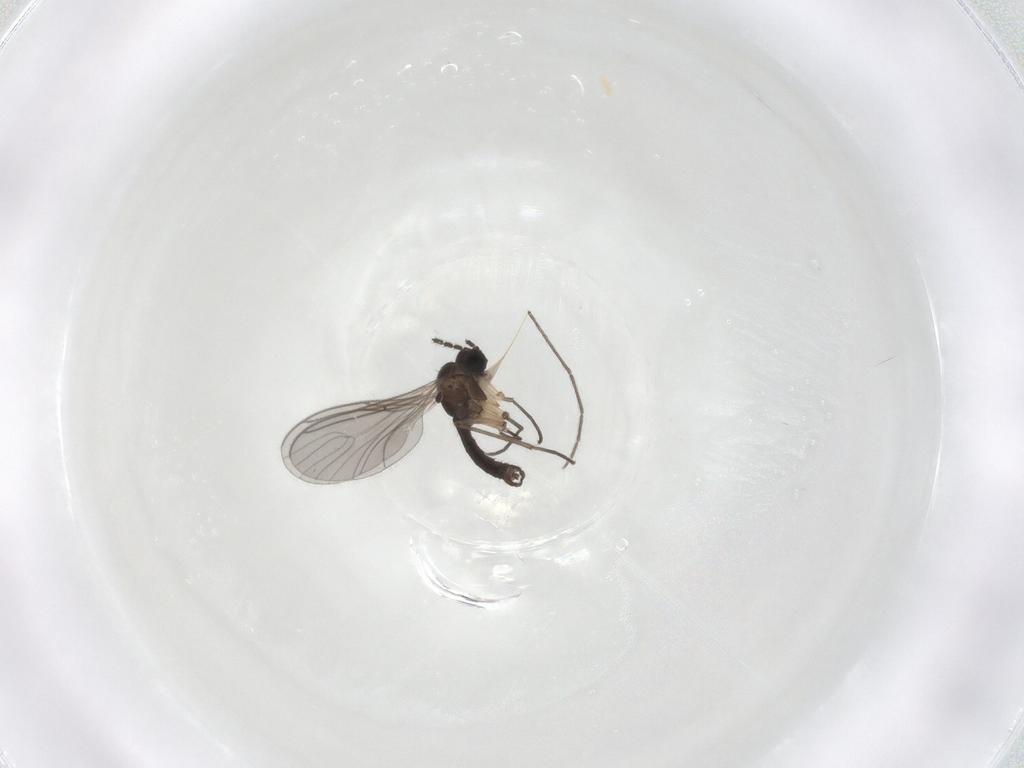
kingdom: Animalia
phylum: Arthropoda
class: Insecta
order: Diptera
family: Sciaridae
